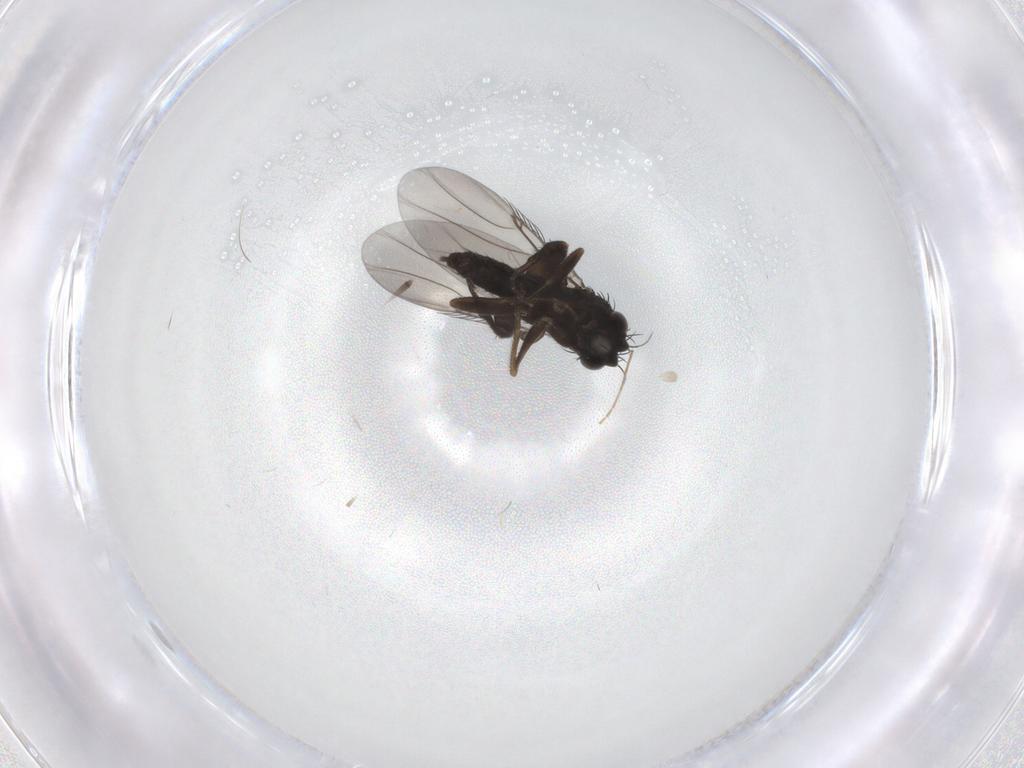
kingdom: Animalia
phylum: Arthropoda
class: Insecta
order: Diptera
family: Phoridae
